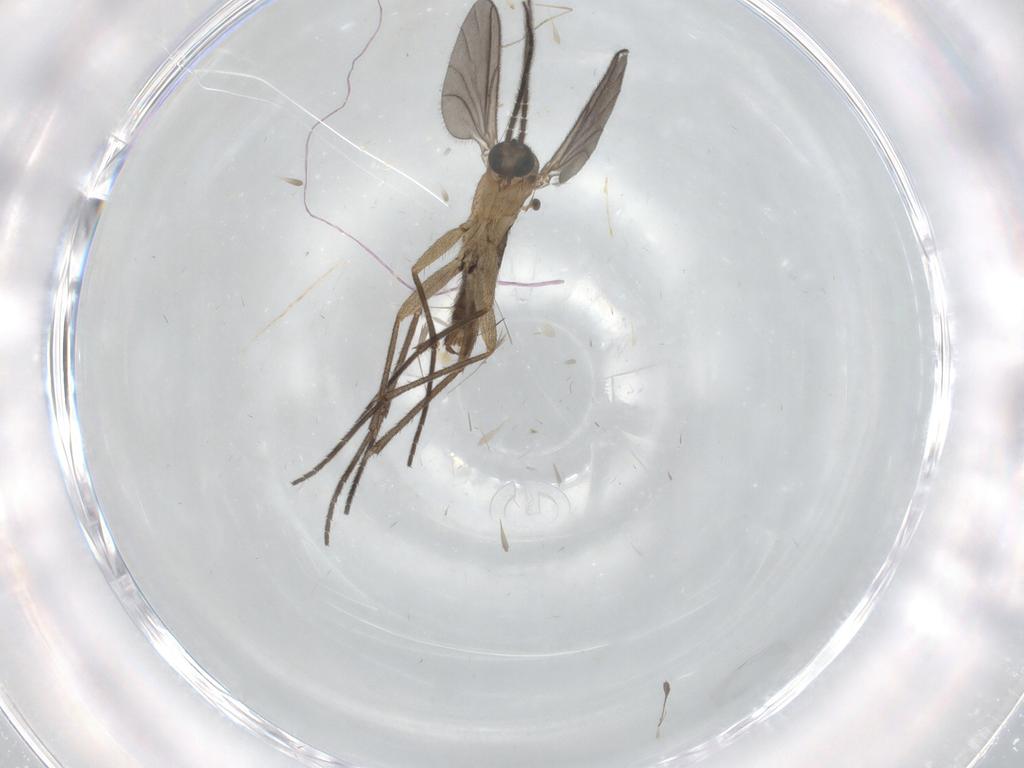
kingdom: Animalia
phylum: Arthropoda
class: Insecta
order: Diptera
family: Sciaridae
